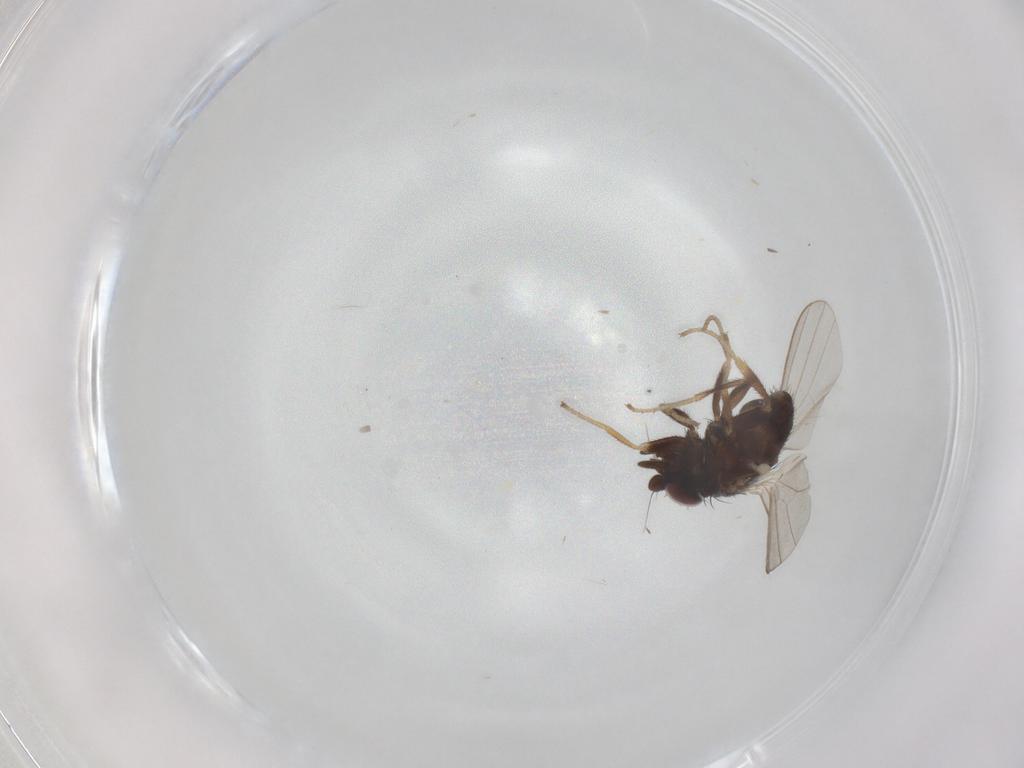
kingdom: Animalia
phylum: Arthropoda
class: Insecta
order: Diptera
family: Milichiidae
